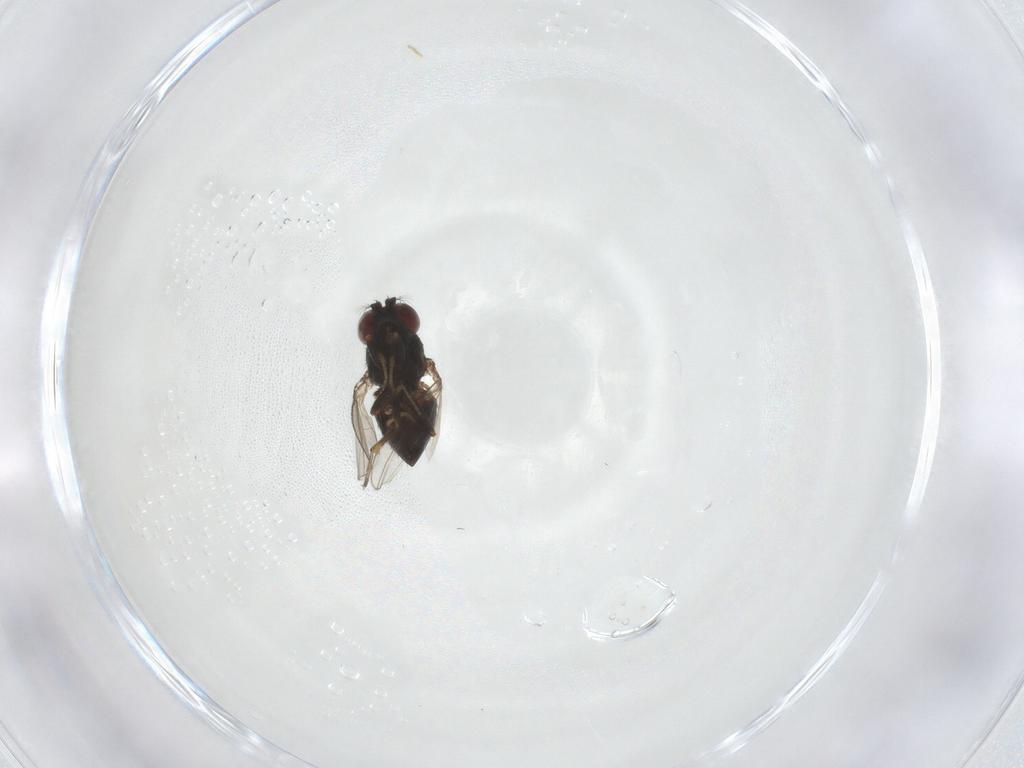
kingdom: Animalia
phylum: Arthropoda
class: Insecta
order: Diptera
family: Ephydridae
